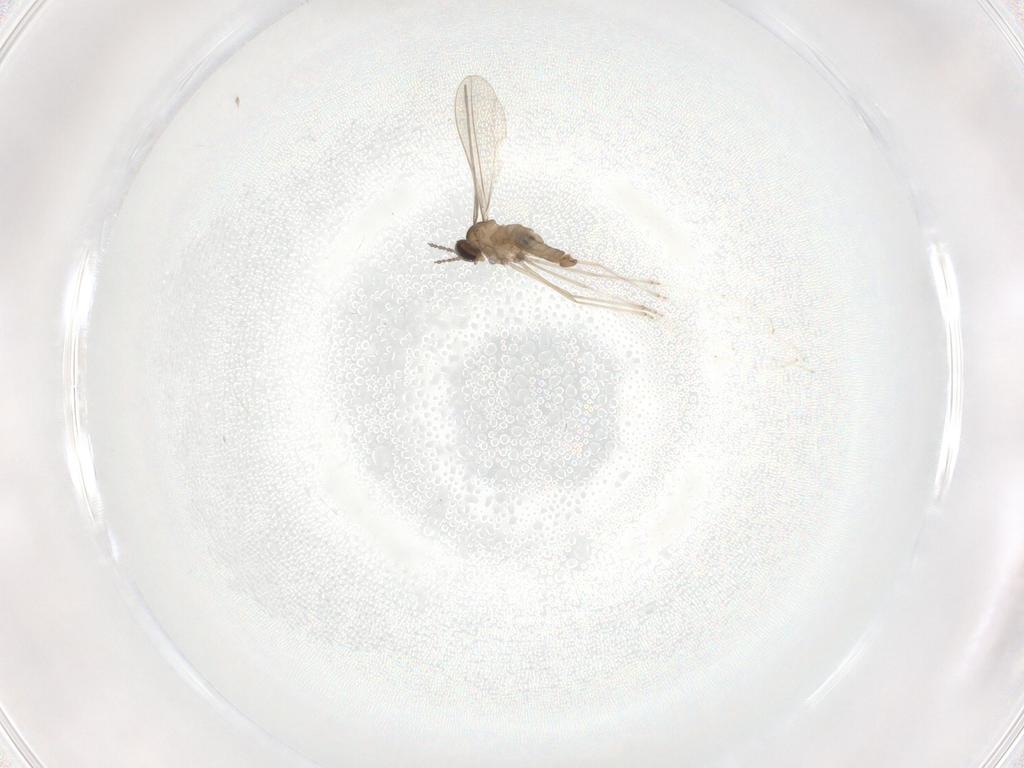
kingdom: Animalia
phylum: Arthropoda
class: Insecta
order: Diptera
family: Cecidomyiidae
